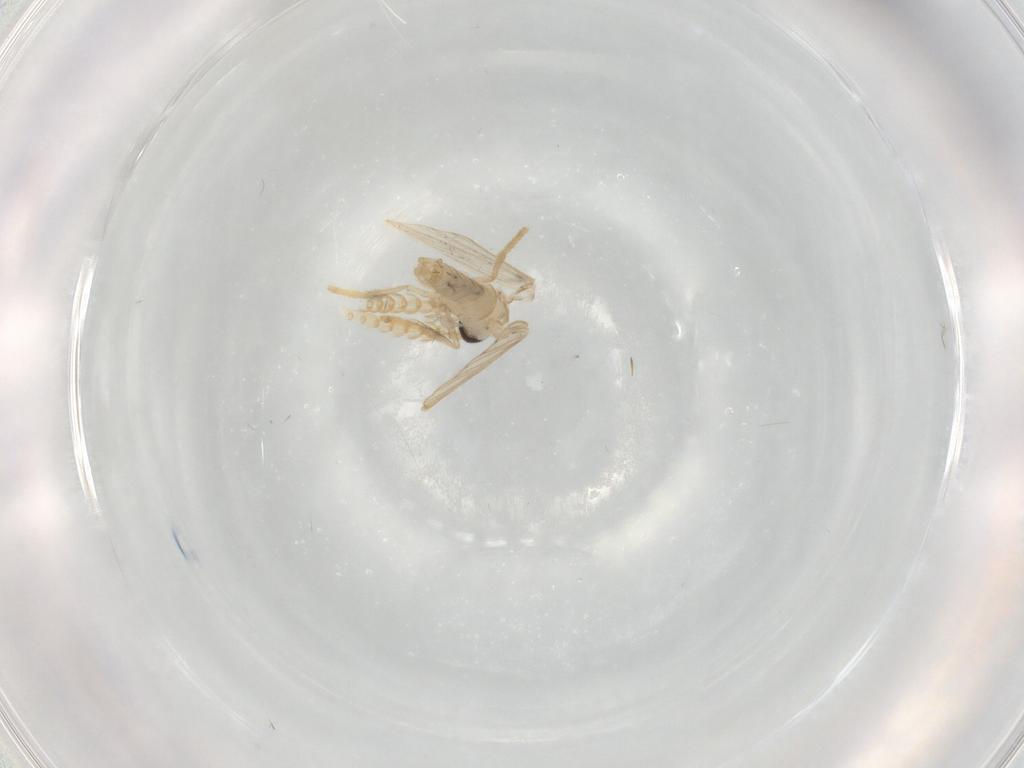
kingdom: Animalia
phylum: Arthropoda
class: Insecta
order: Diptera
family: Psychodidae
